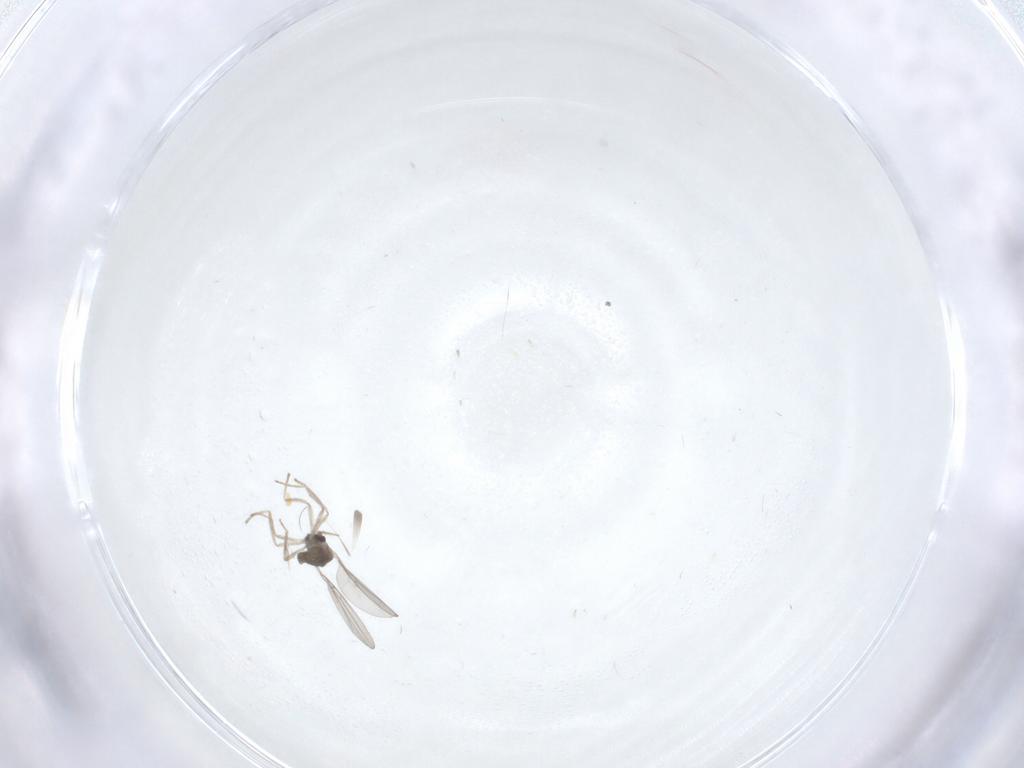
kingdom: Animalia
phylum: Arthropoda
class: Insecta
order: Diptera
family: Cecidomyiidae
